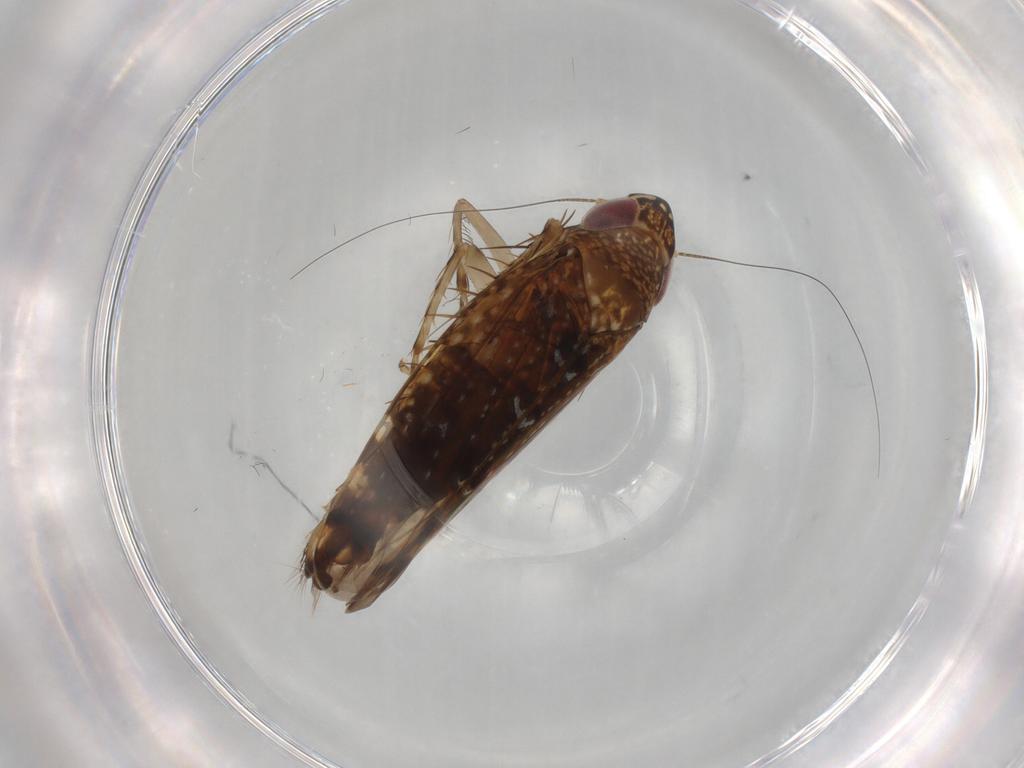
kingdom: Animalia
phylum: Arthropoda
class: Insecta
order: Hemiptera
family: Cicadellidae
